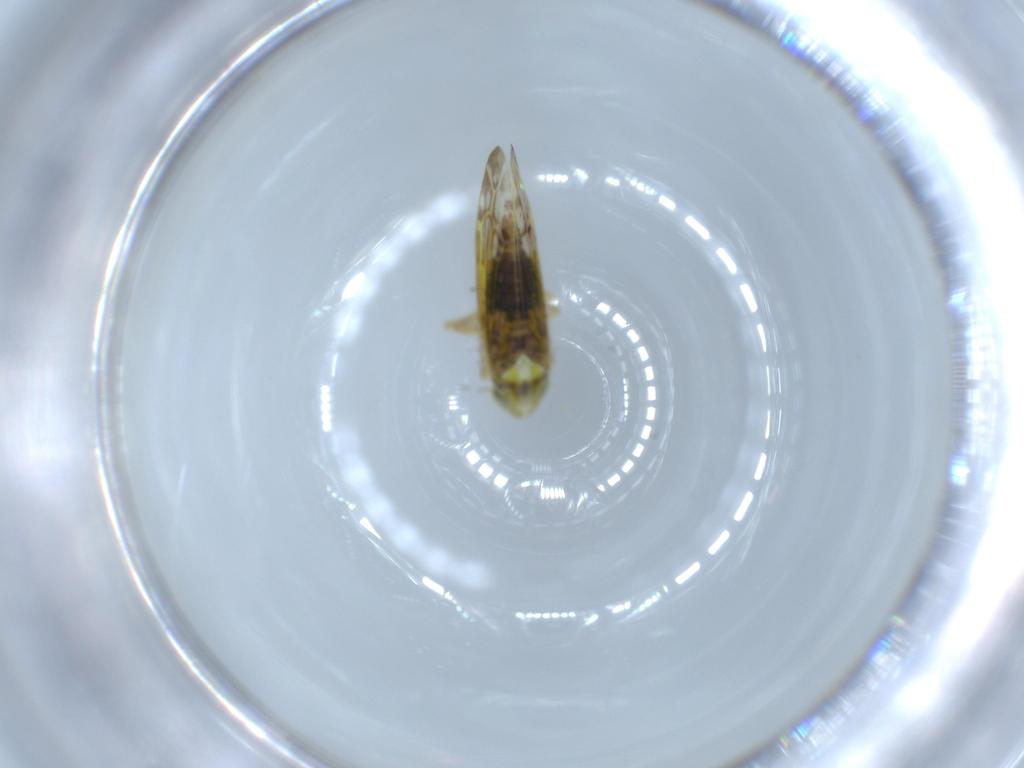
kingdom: Animalia
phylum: Arthropoda
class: Insecta
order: Hemiptera
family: Cicadellidae
